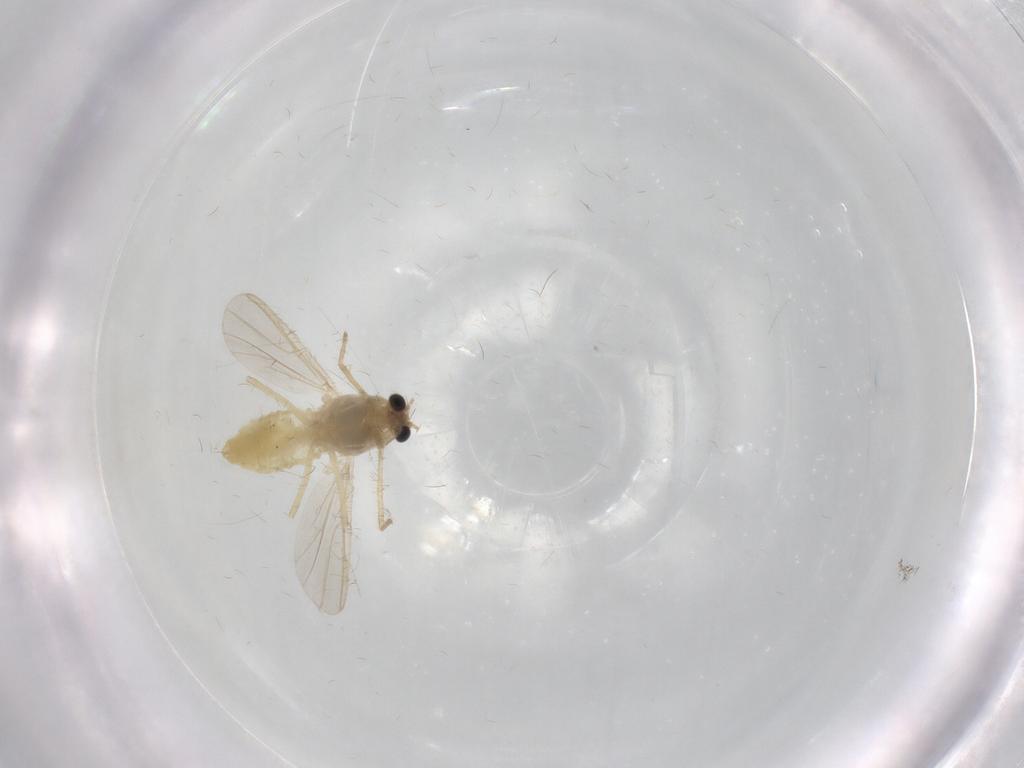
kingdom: Animalia
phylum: Arthropoda
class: Insecta
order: Diptera
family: Chironomidae
